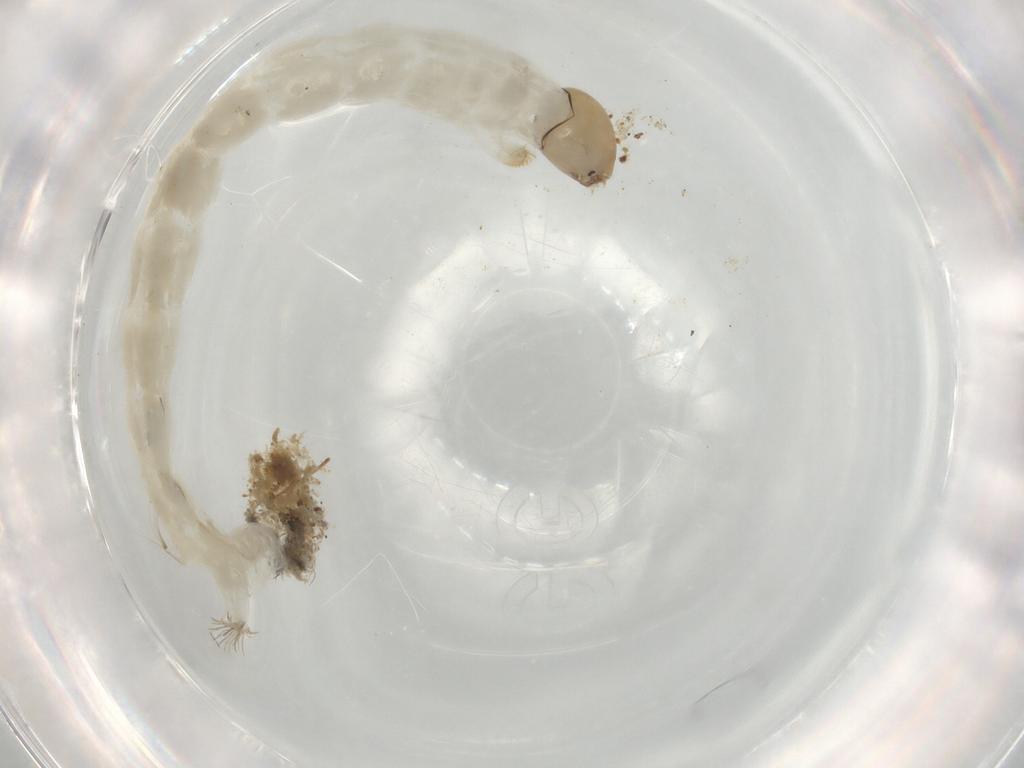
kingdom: Animalia
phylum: Arthropoda
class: Insecta
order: Diptera
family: Chironomidae
